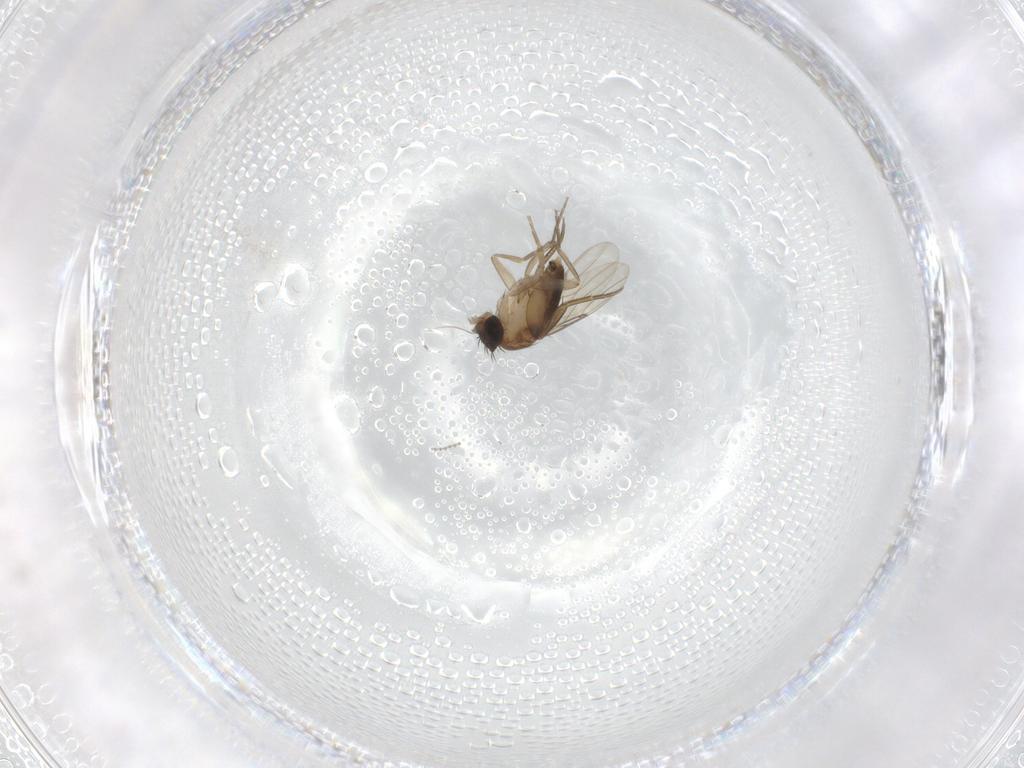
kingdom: Animalia
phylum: Arthropoda
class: Insecta
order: Diptera
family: Phoridae
